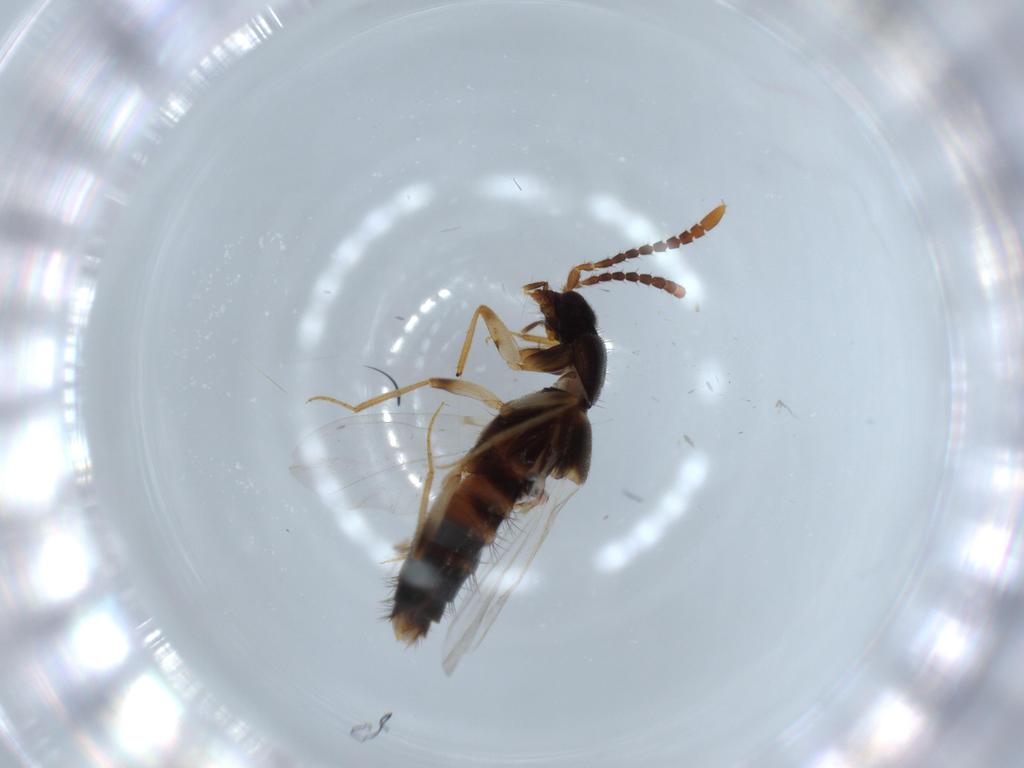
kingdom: Animalia
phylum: Arthropoda
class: Insecta
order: Coleoptera
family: Staphylinidae
